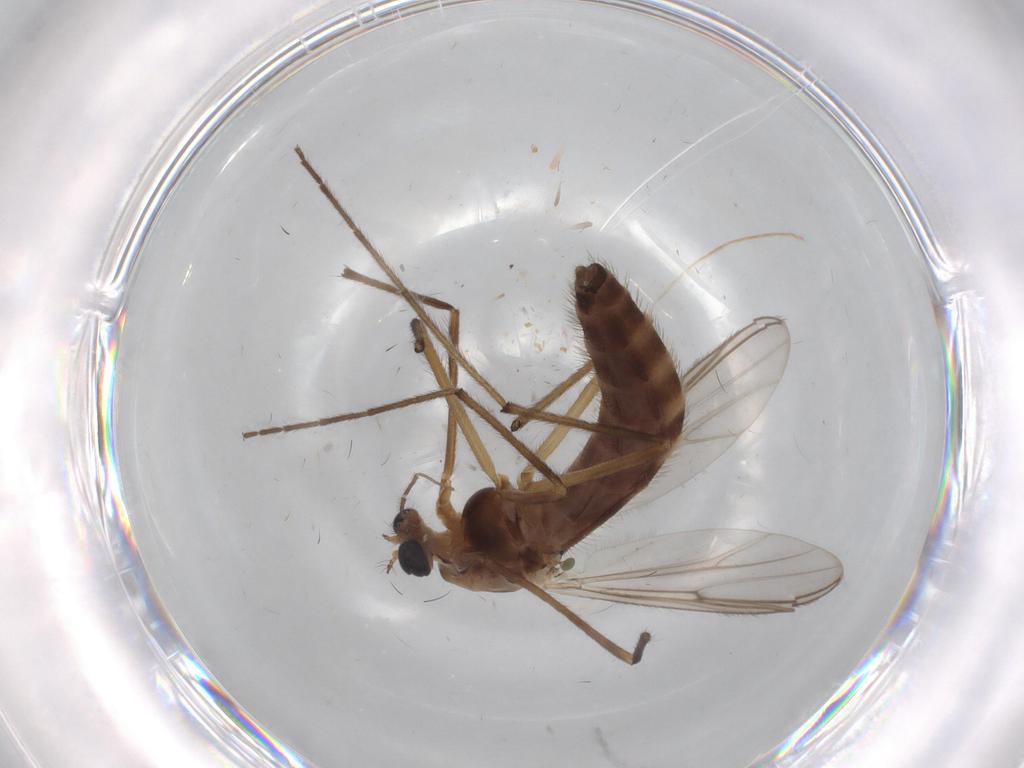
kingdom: Animalia
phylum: Arthropoda
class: Insecta
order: Diptera
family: Chironomidae
